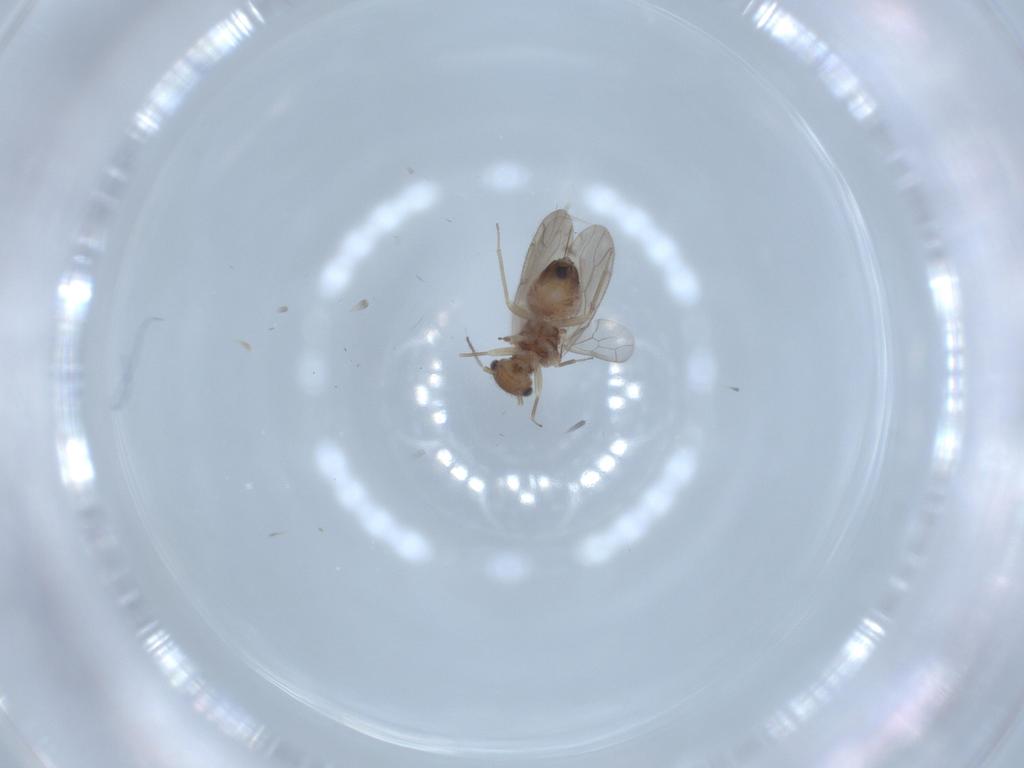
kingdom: Animalia
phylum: Arthropoda
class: Insecta
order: Psocodea
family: Ectopsocidae
